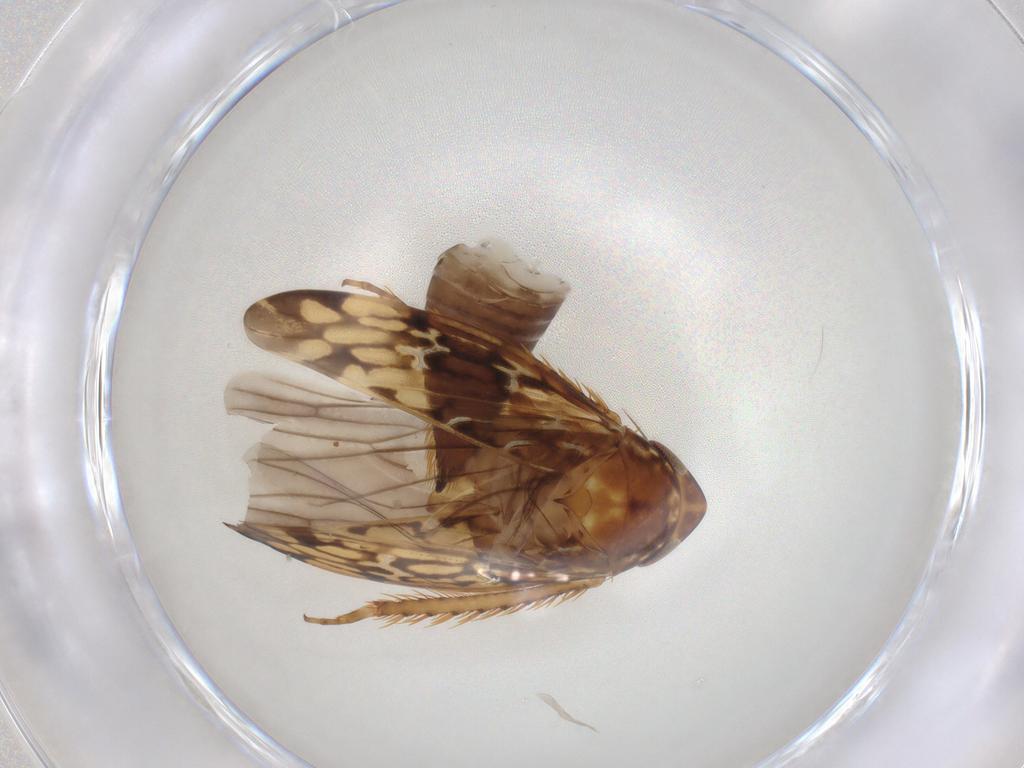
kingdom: Animalia
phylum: Arthropoda
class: Insecta
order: Hemiptera
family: Cicadellidae
